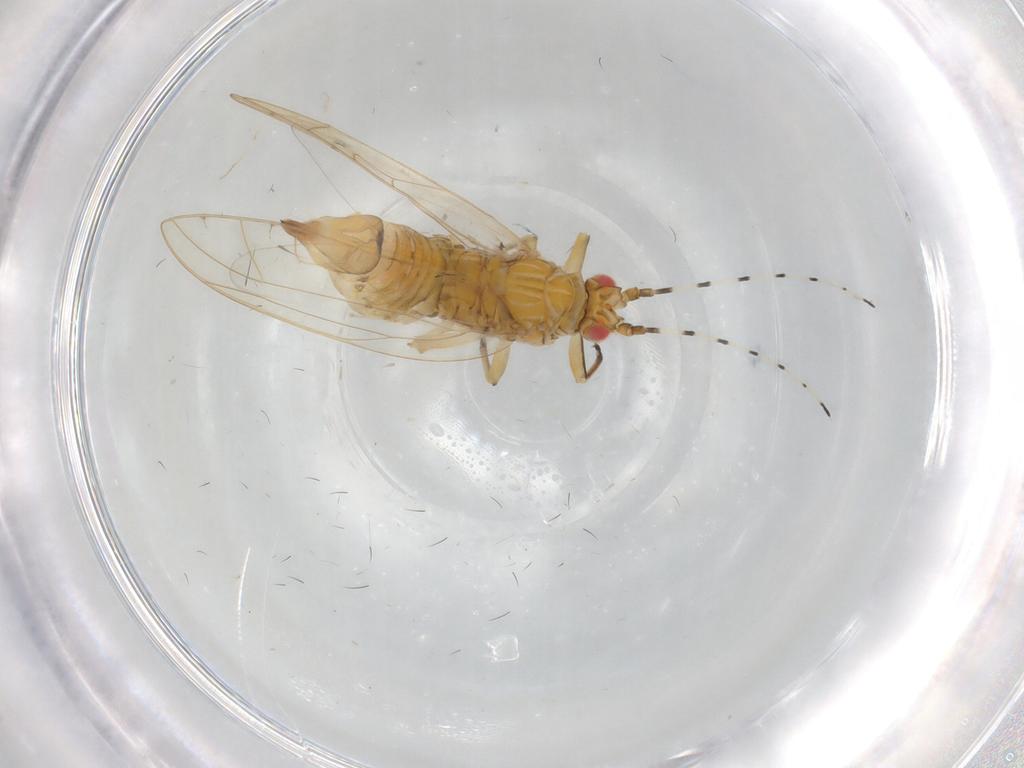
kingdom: Animalia
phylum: Arthropoda
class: Insecta
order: Hemiptera
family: Carsidaridae
